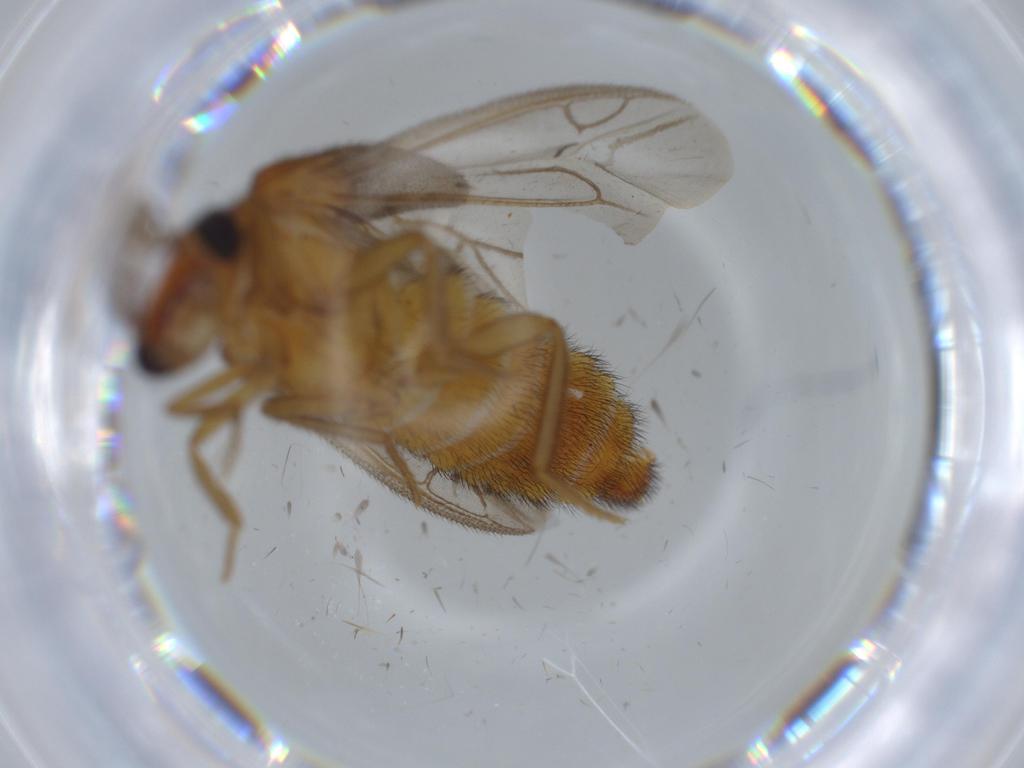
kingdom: Animalia
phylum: Arthropoda
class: Insecta
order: Coleoptera
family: Phengodidae
